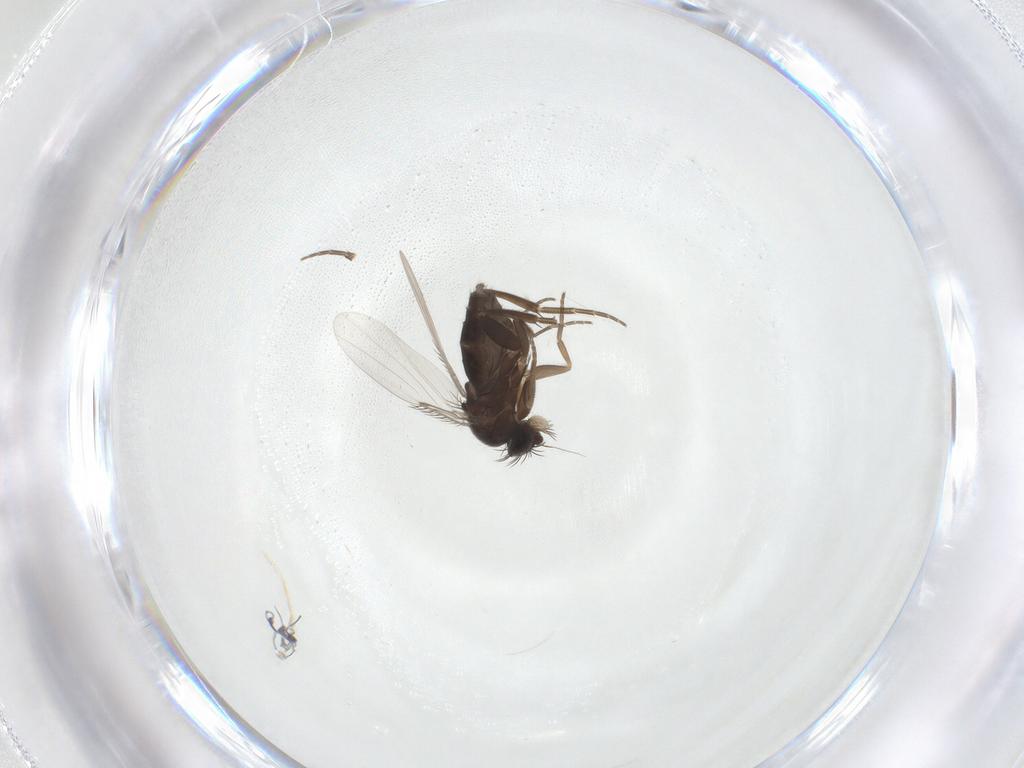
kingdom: Animalia
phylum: Arthropoda
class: Insecta
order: Diptera
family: Phoridae
